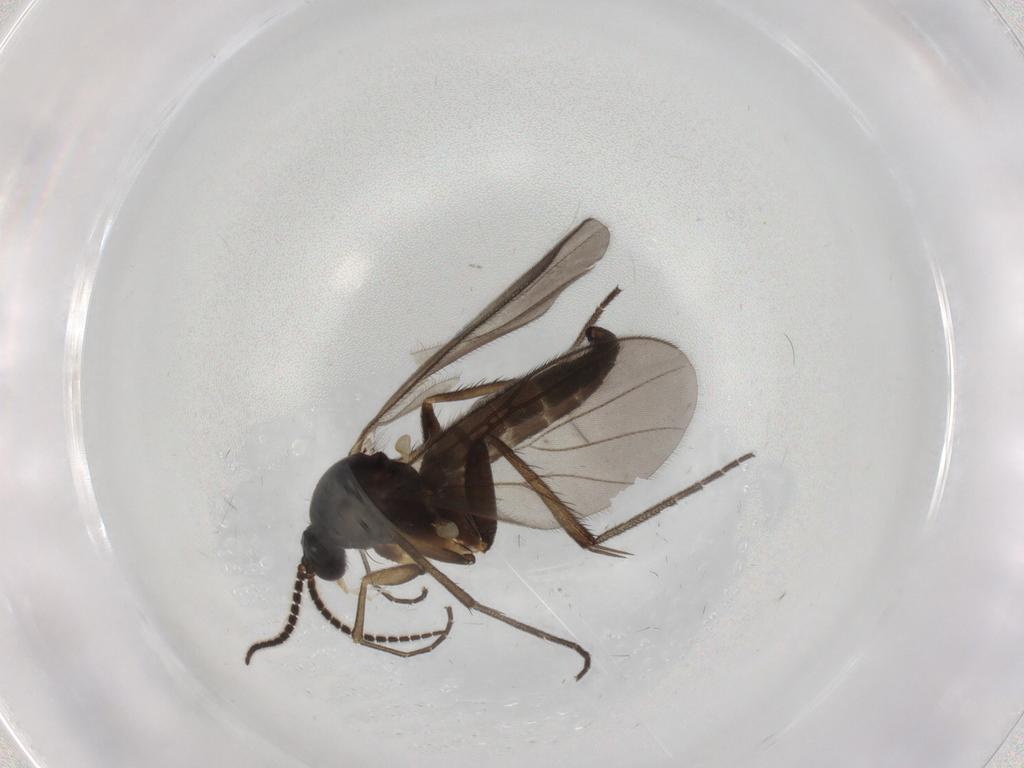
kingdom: Animalia
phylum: Arthropoda
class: Insecta
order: Diptera
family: Mycetophilidae
